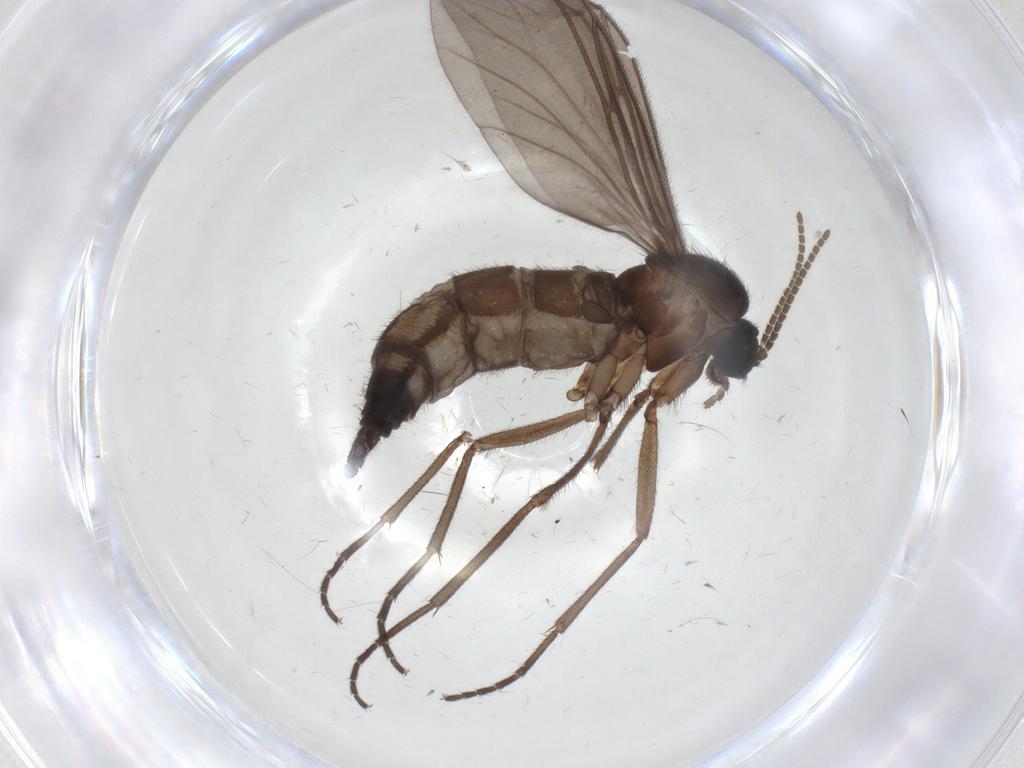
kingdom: Animalia
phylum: Arthropoda
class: Insecta
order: Diptera
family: Sciaridae
